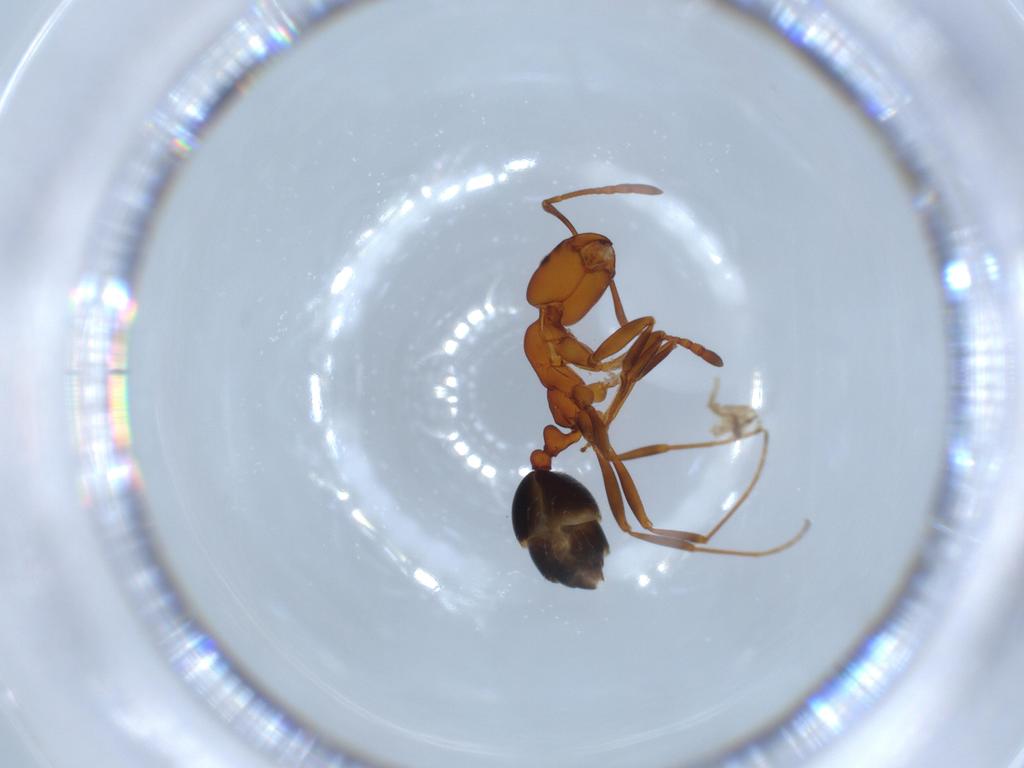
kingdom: Animalia
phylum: Arthropoda
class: Insecta
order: Hymenoptera
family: Formicidae
